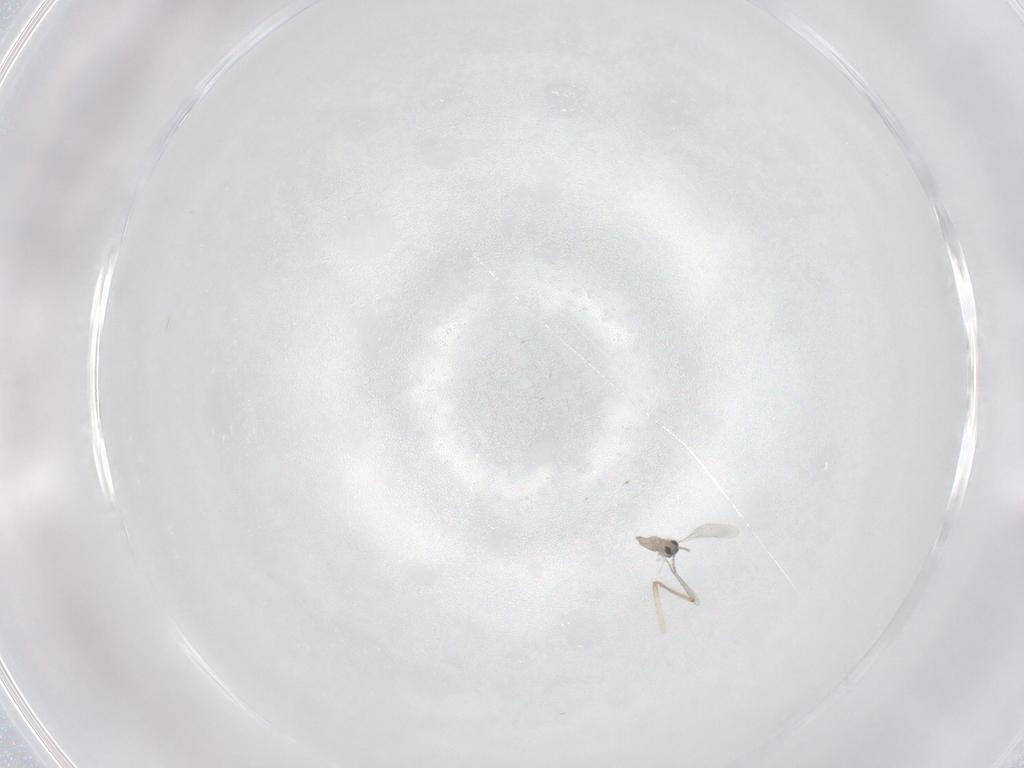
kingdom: Animalia
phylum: Arthropoda
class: Insecta
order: Diptera
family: Chironomidae
